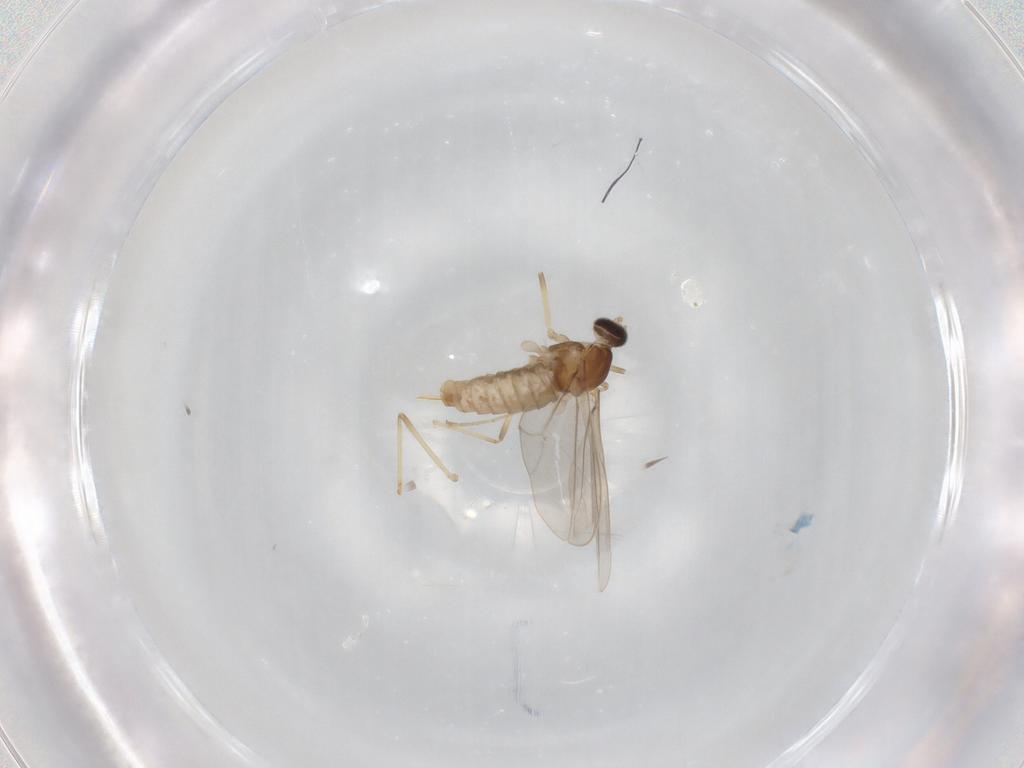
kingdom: Animalia
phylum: Arthropoda
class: Insecta
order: Diptera
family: Cecidomyiidae
